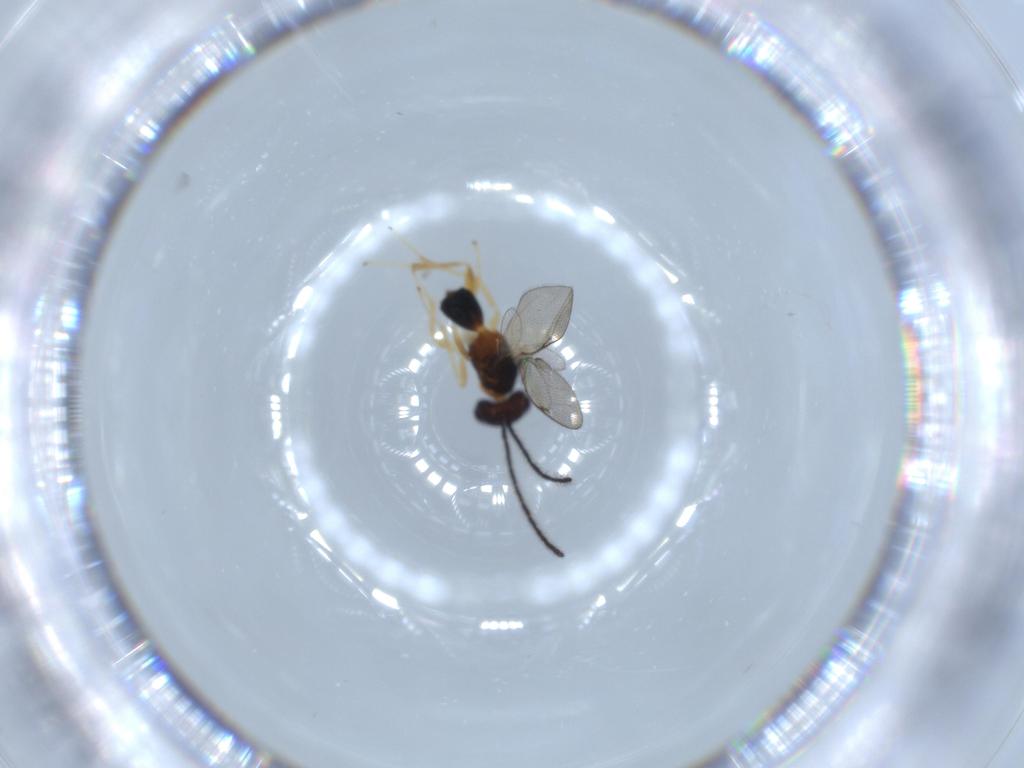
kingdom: Animalia
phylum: Arthropoda
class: Insecta
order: Hymenoptera
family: Diparidae
